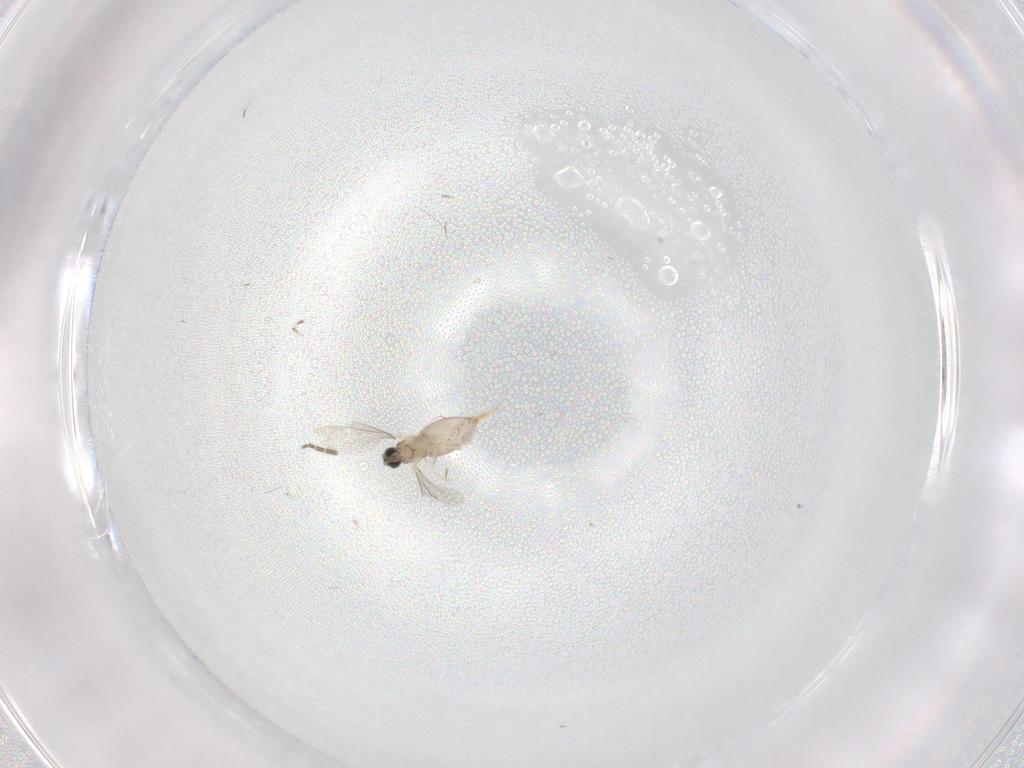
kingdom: Animalia
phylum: Arthropoda
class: Insecta
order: Diptera
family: Cecidomyiidae
